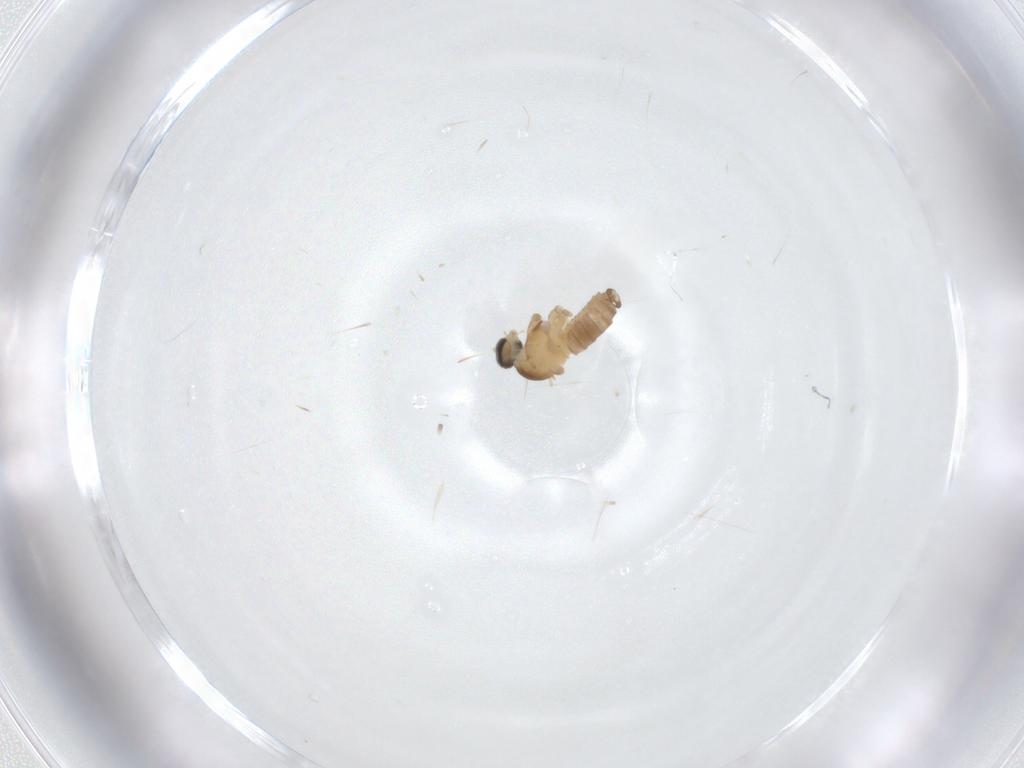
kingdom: Animalia
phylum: Arthropoda
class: Insecta
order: Diptera
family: Cecidomyiidae
